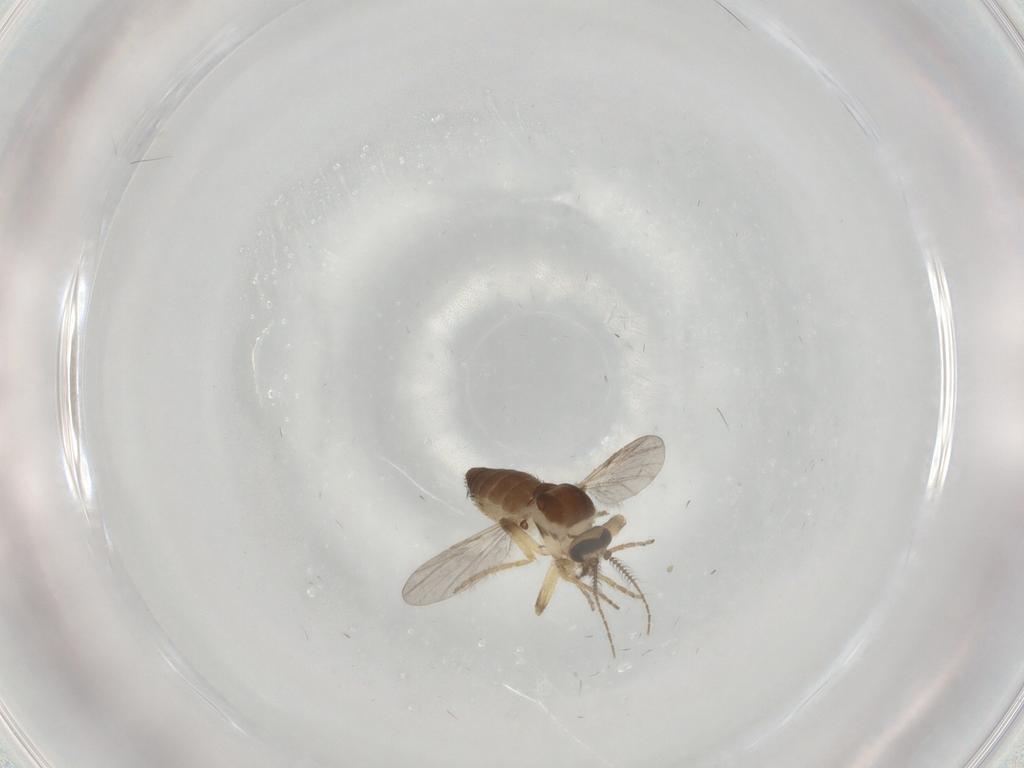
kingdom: Animalia
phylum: Arthropoda
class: Insecta
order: Diptera
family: Ceratopogonidae
